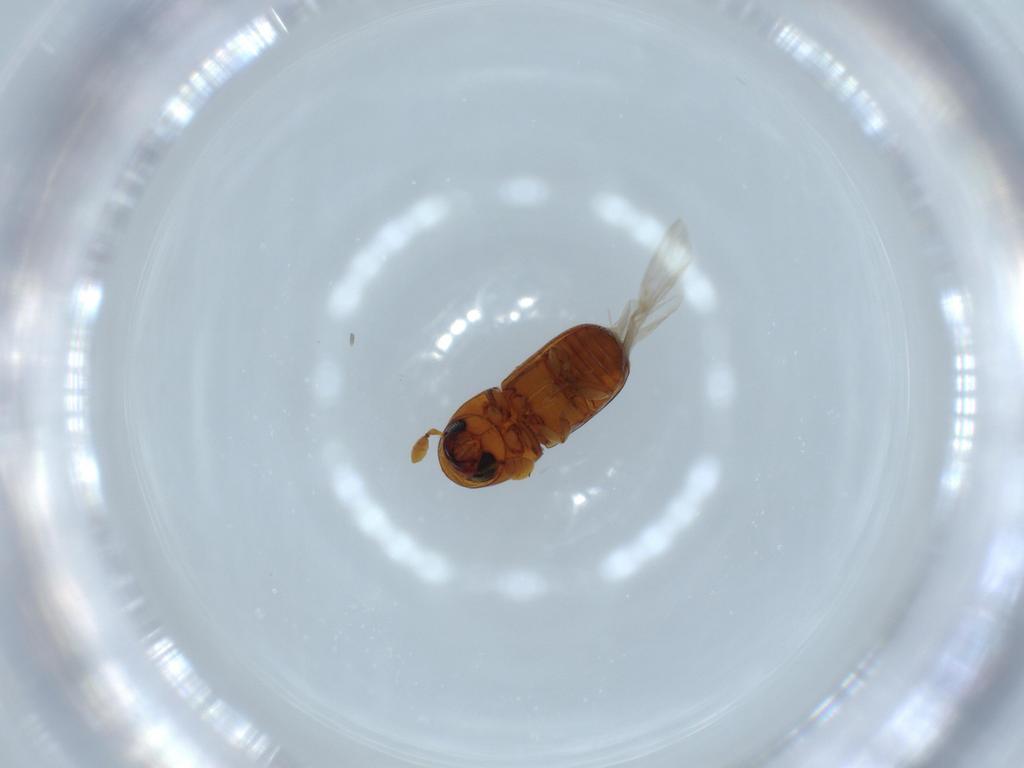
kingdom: Animalia
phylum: Arthropoda
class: Insecta
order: Coleoptera
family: Curculionidae
